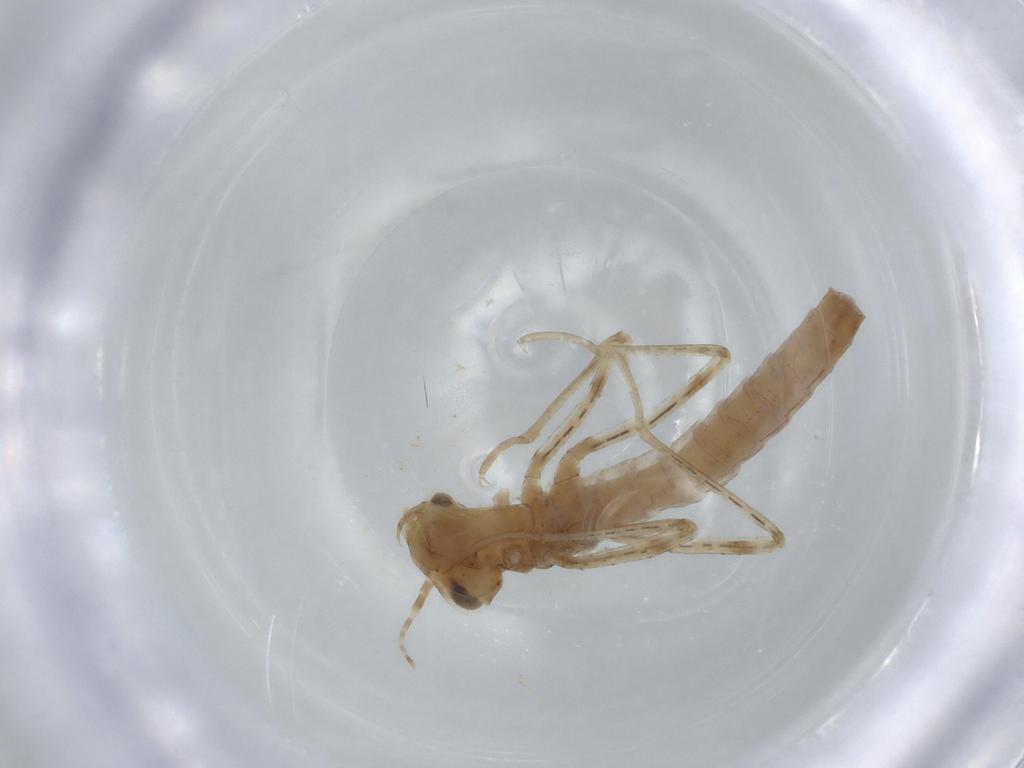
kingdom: Animalia
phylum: Arthropoda
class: Insecta
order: Odonata
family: Coenagrionidae
